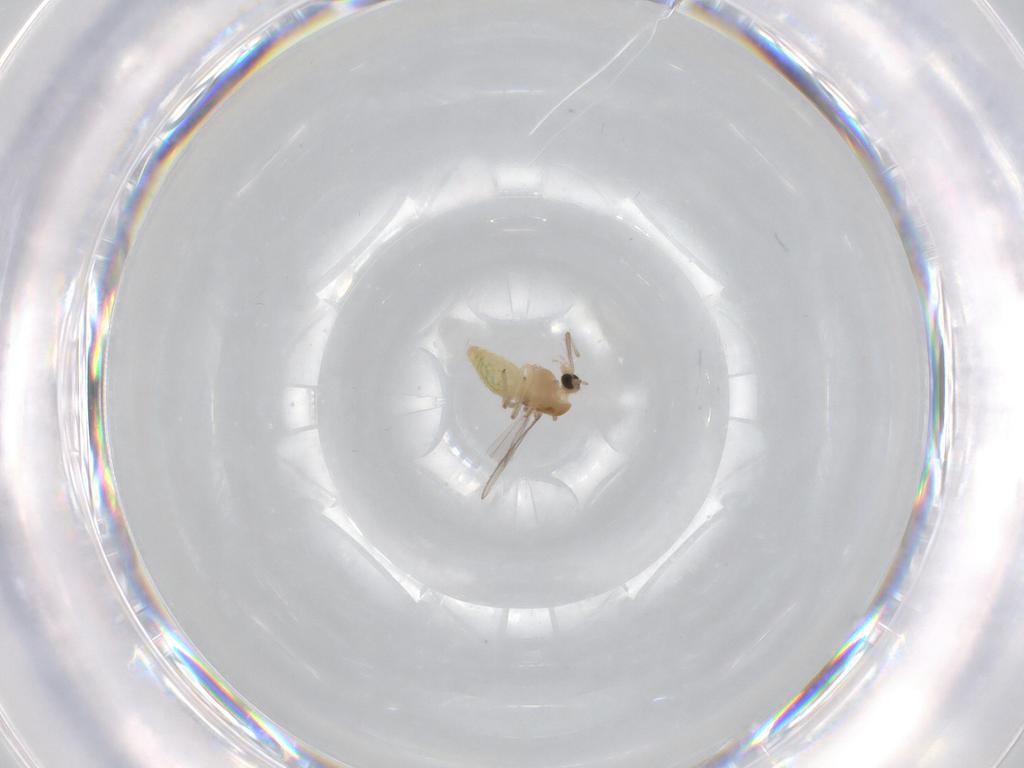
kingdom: Animalia
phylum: Arthropoda
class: Insecta
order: Diptera
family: Chironomidae
